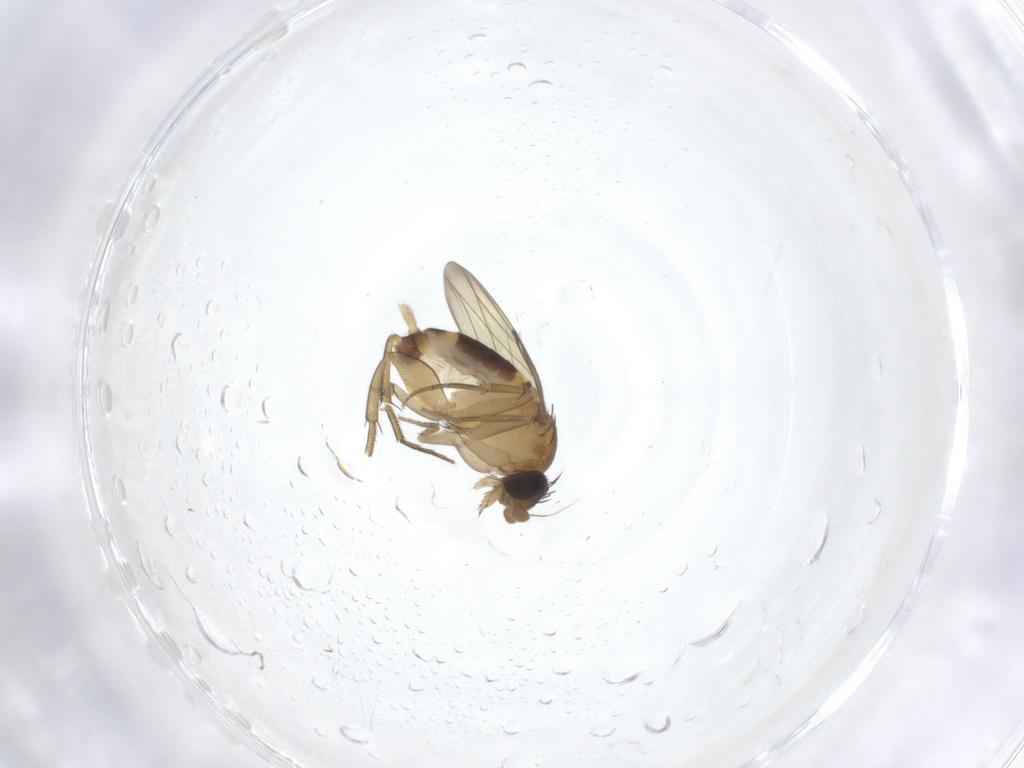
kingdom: Animalia
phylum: Arthropoda
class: Insecta
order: Diptera
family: Phoridae
